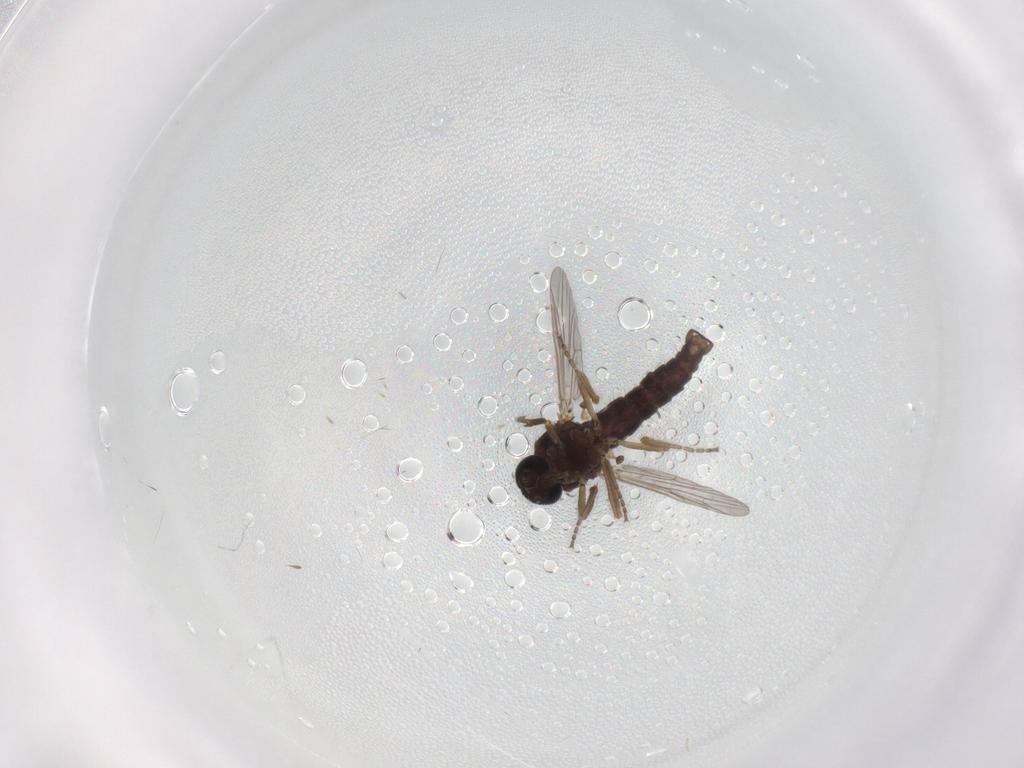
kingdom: Animalia
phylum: Arthropoda
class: Insecta
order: Diptera
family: Ceratopogonidae
